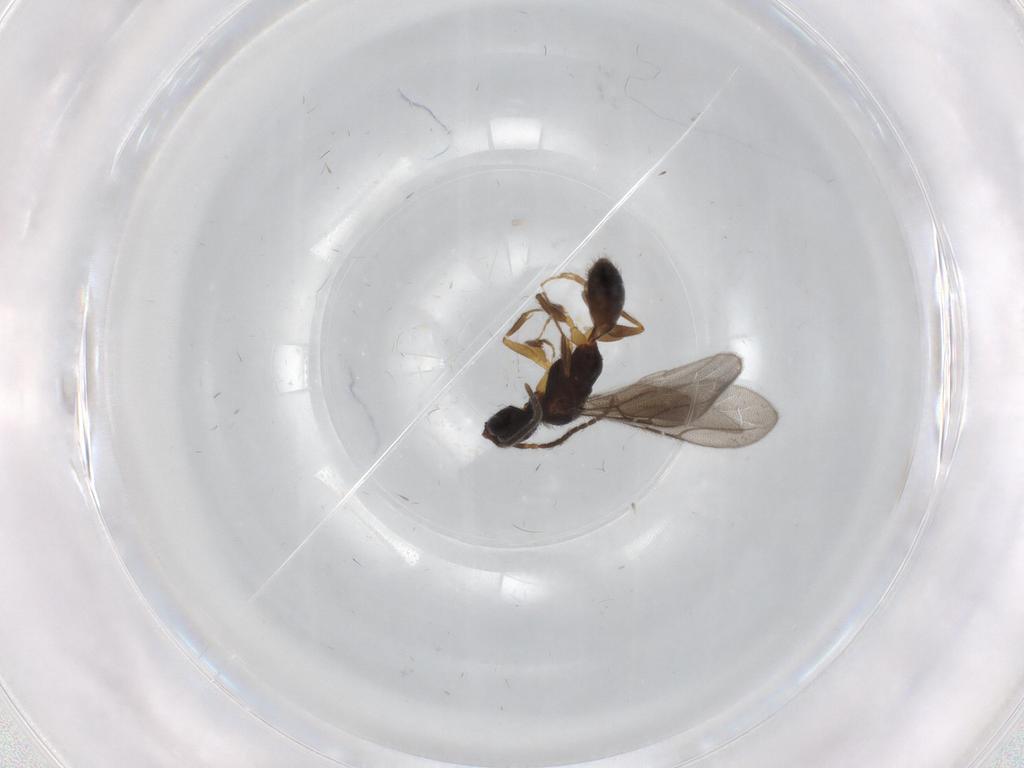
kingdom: Animalia
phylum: Arthropoda
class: Insecta
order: Hymenoptera
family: Bethylidae
